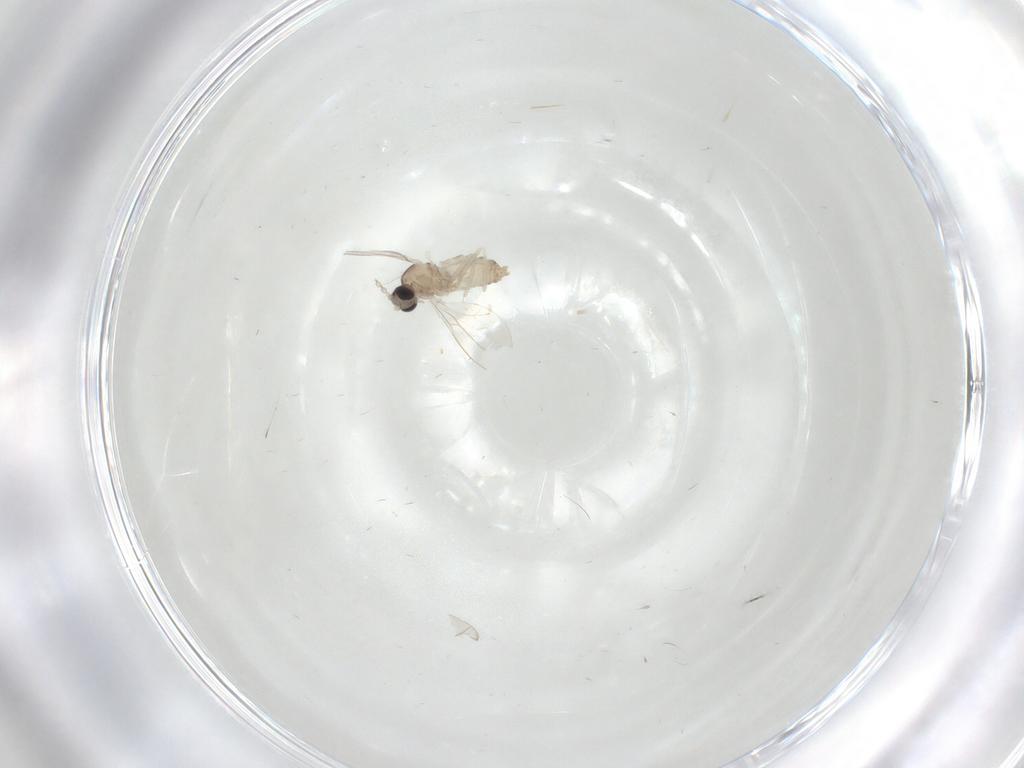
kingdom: Animalia
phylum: Arthropoda
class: Insecta
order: Diptera
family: Cecidomyiidae
